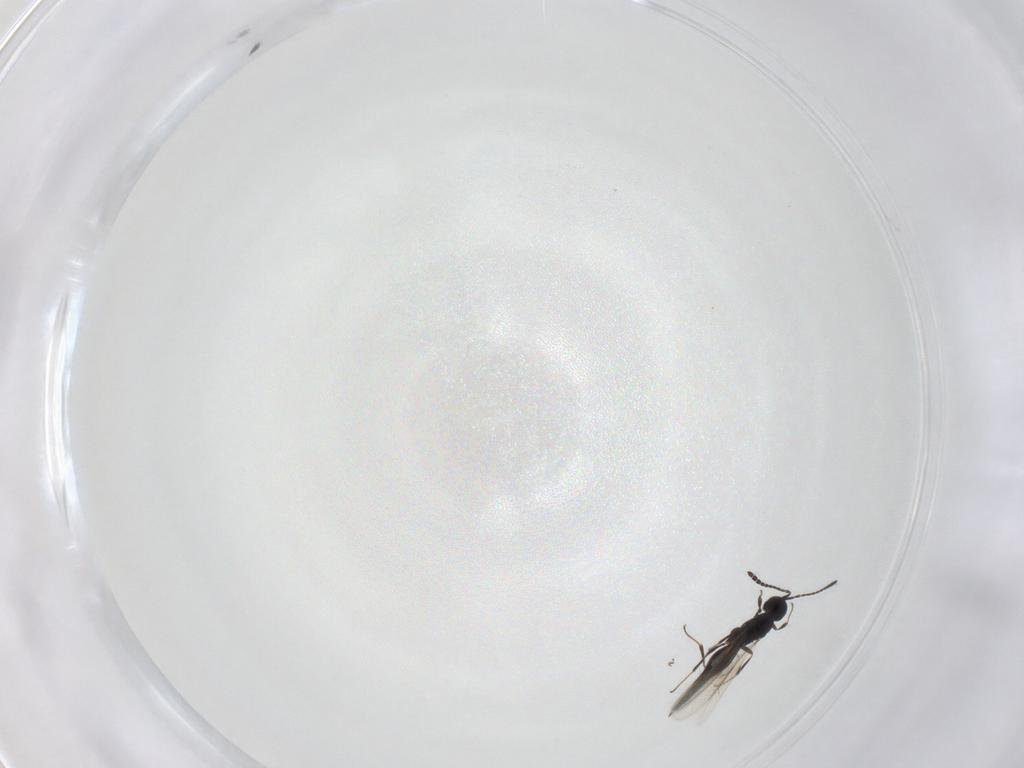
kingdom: Animalia
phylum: Arthropoda
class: Insecta
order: Hymenoptera
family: Scelionidae
